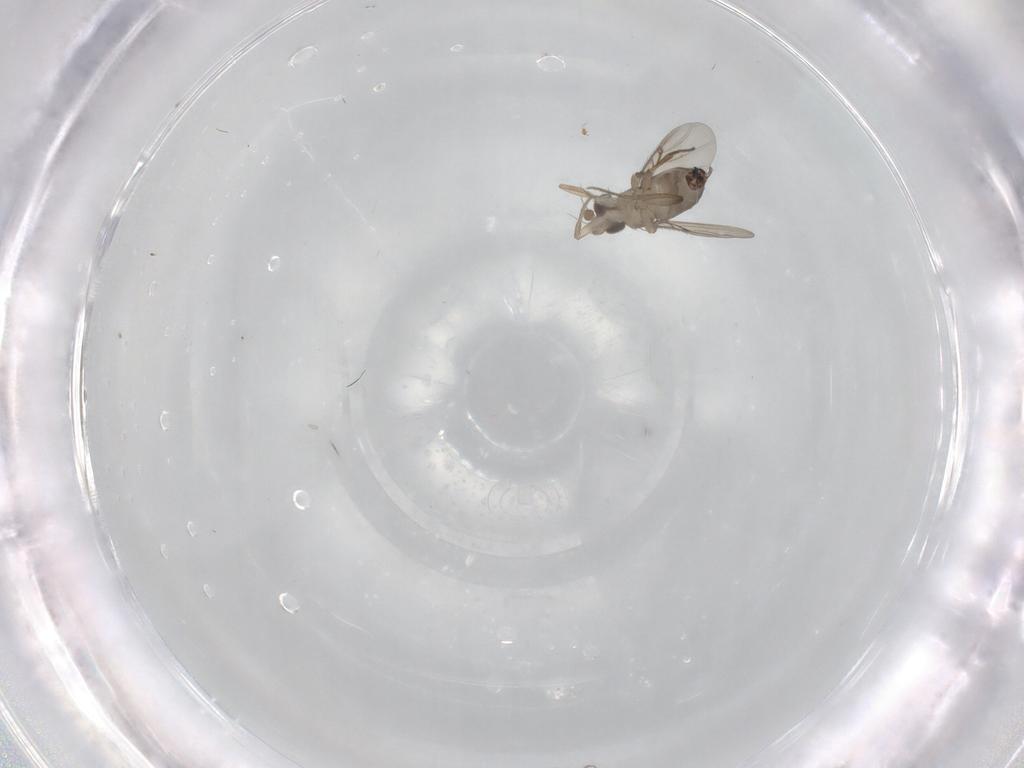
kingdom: Animalia
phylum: Arthropoda
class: Insecta
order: Diptera
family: Phoridae
